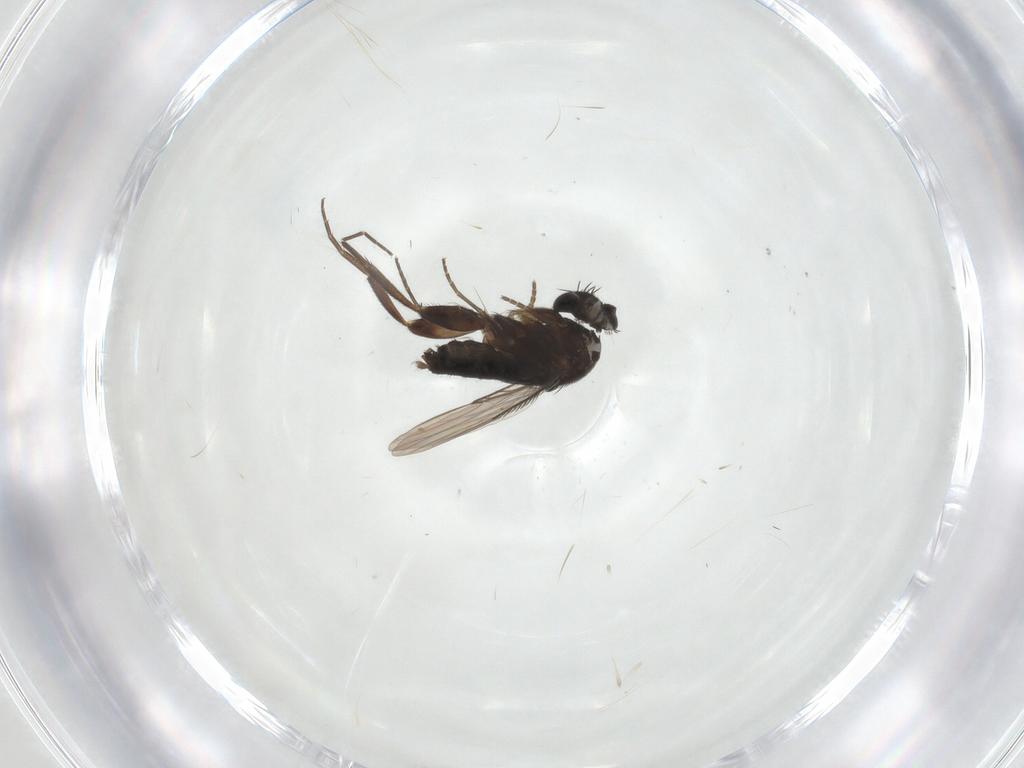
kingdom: Animalia
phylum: Arthropoda
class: Insecta
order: Diptera
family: Phoridae
